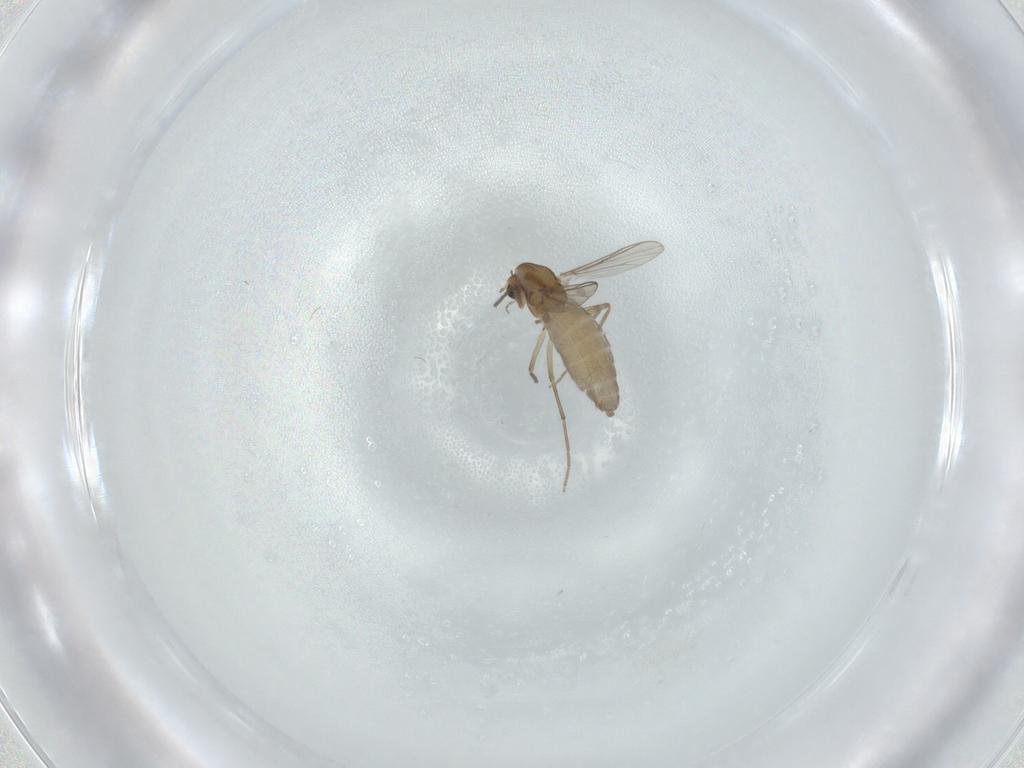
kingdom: Animalia
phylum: Arthropoda
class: Insecta
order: Diptera
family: Chironomidae
